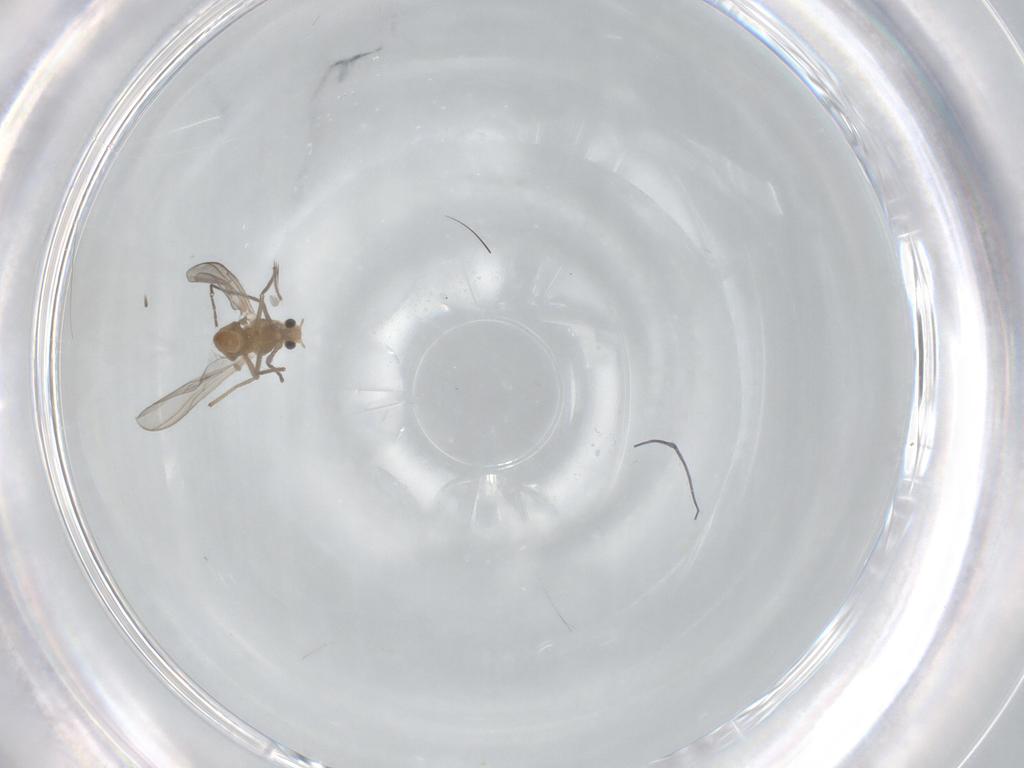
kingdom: Animalia
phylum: Arthropoda
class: Insecta
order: Diptera
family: Chironomidae
